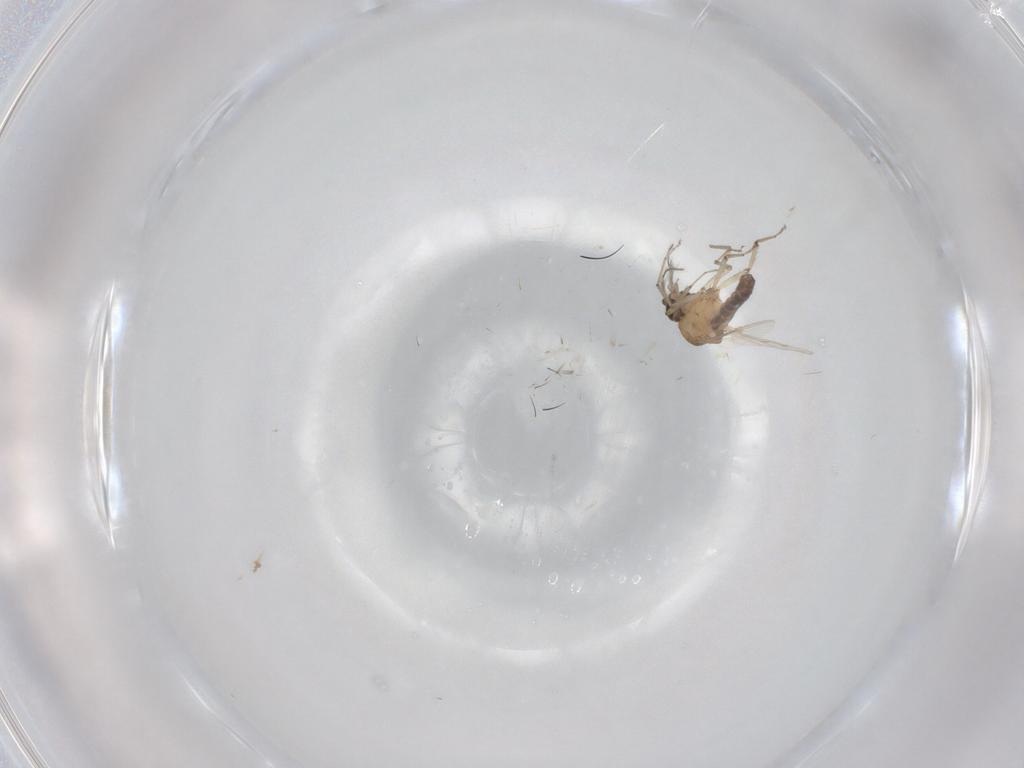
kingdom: Animalia
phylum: Arthropoda
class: Insecta
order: Diptera
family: Ceratopogonidae
